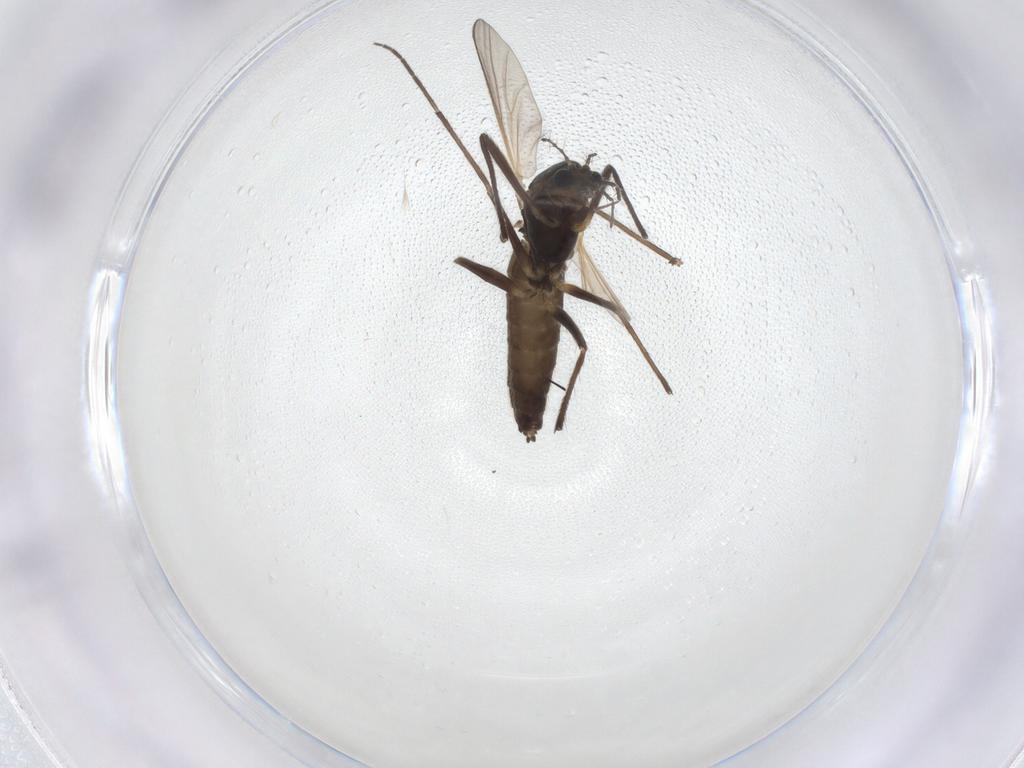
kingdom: Animalia
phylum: Arthropoda
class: Insecta
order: Diptera
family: Chironomidae
